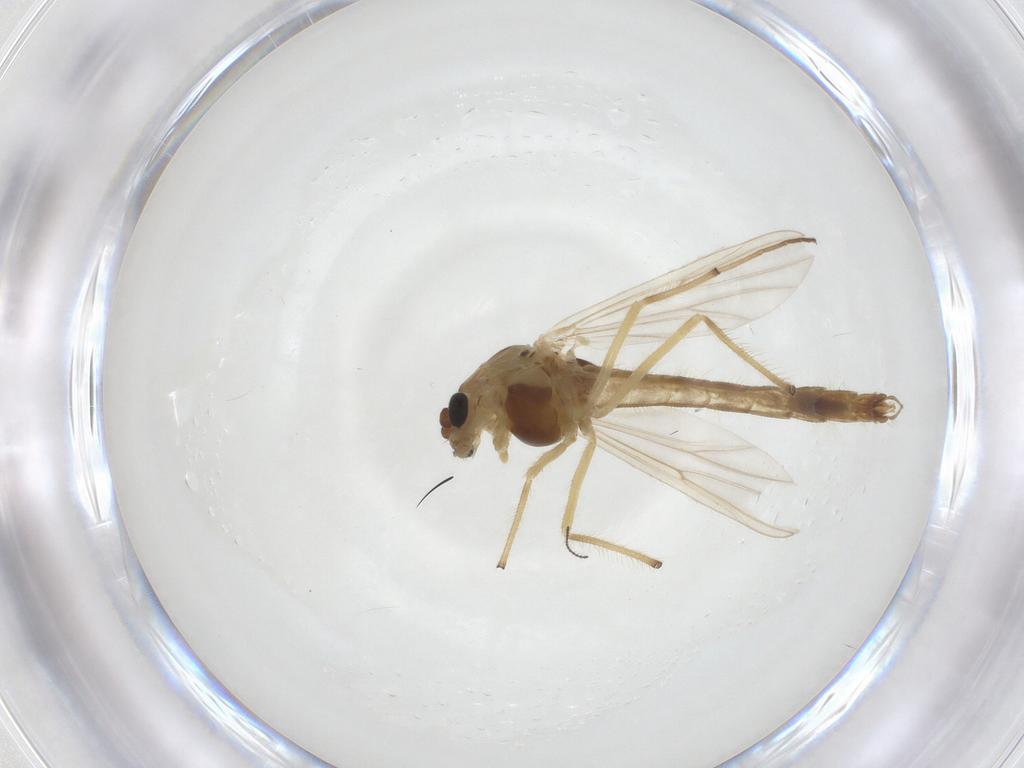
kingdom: Animalia
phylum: Arthropoda
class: Insecta
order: Diptera
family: Chironomidae
